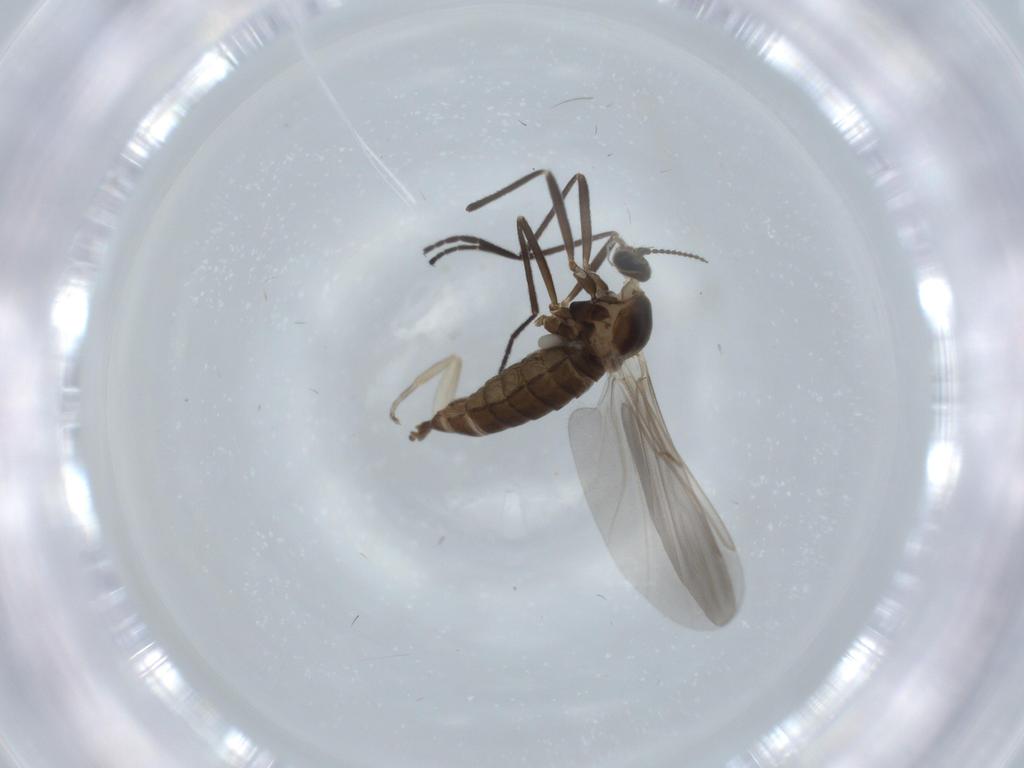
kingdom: Animalia
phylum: Arthropoda
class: Insecta
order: Diptera
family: Cecidomyiidae
